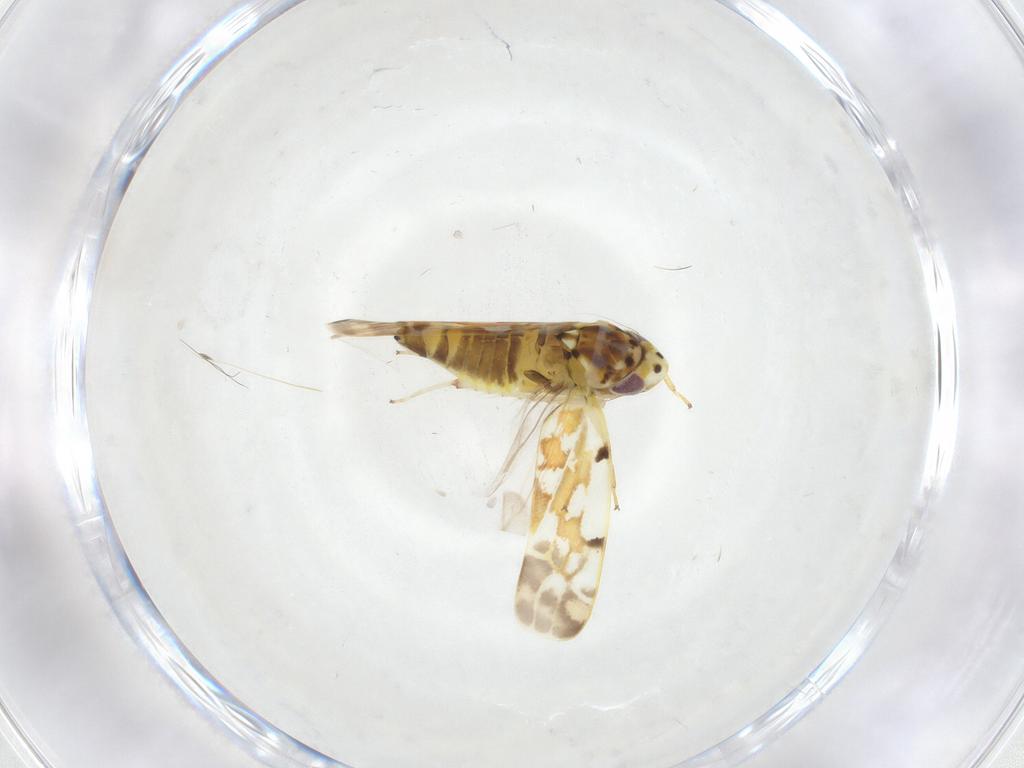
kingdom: Animalia
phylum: Arthropoda
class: Insecta
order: Hemiptera
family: Cicadellidae
